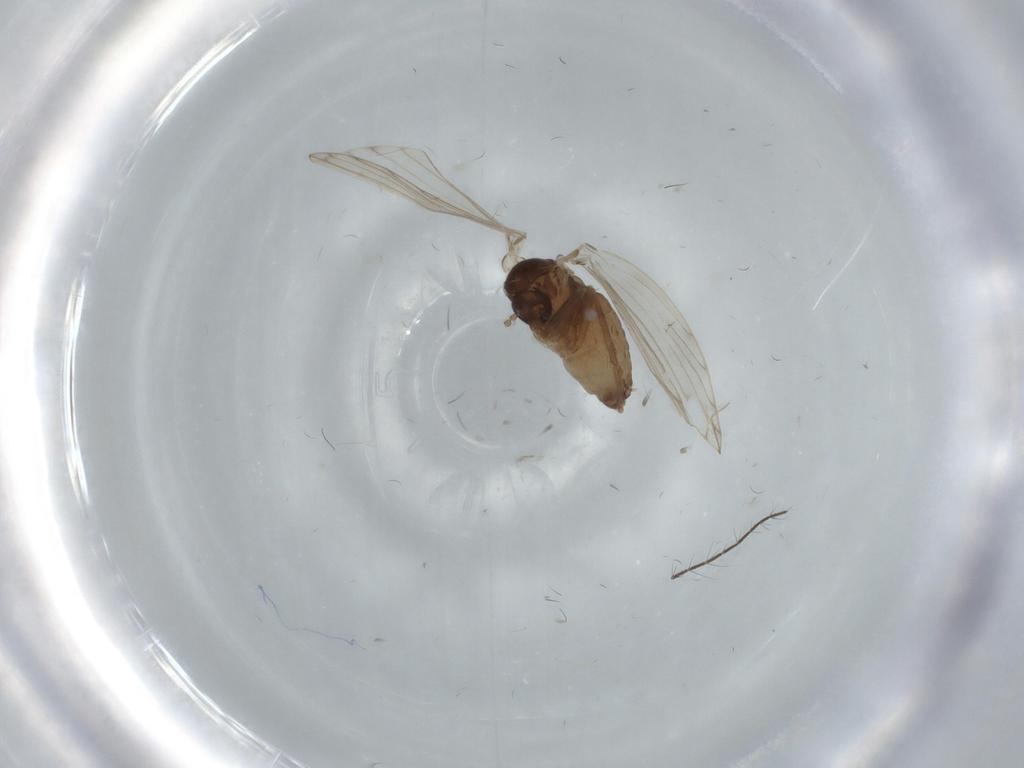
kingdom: Animalia
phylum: Arthropoda
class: Insecta
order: Diptera
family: Psychodidae
